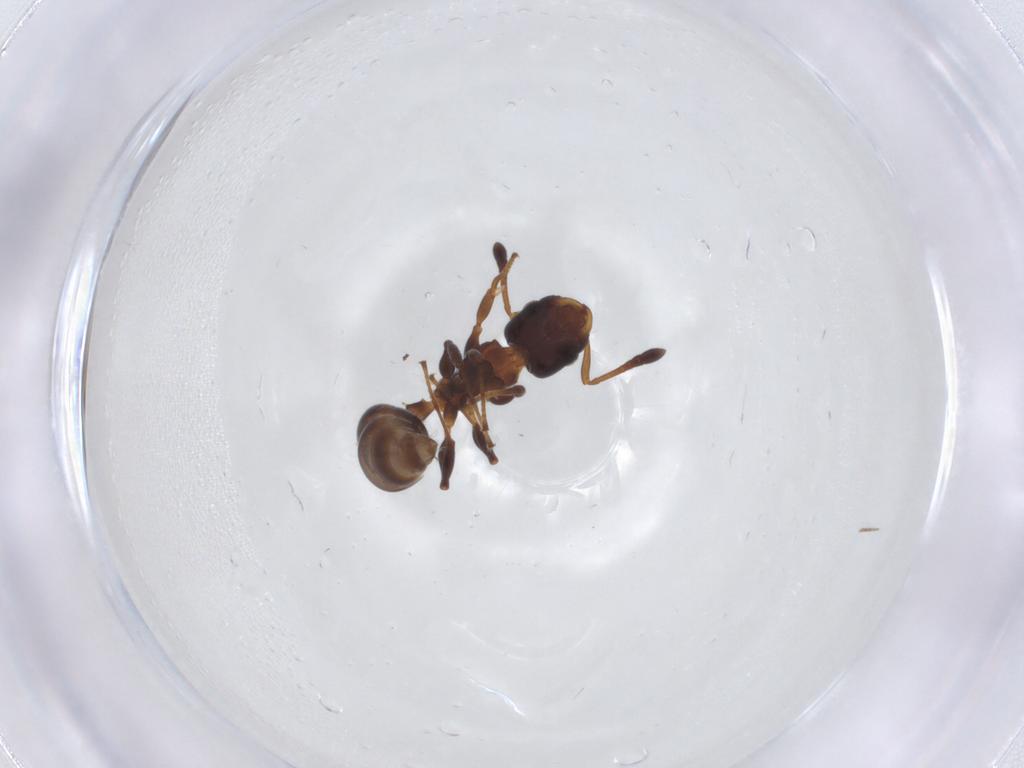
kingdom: Animalia
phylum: Arthropoda
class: Insecta
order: Hymenoptera
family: Formicidae
